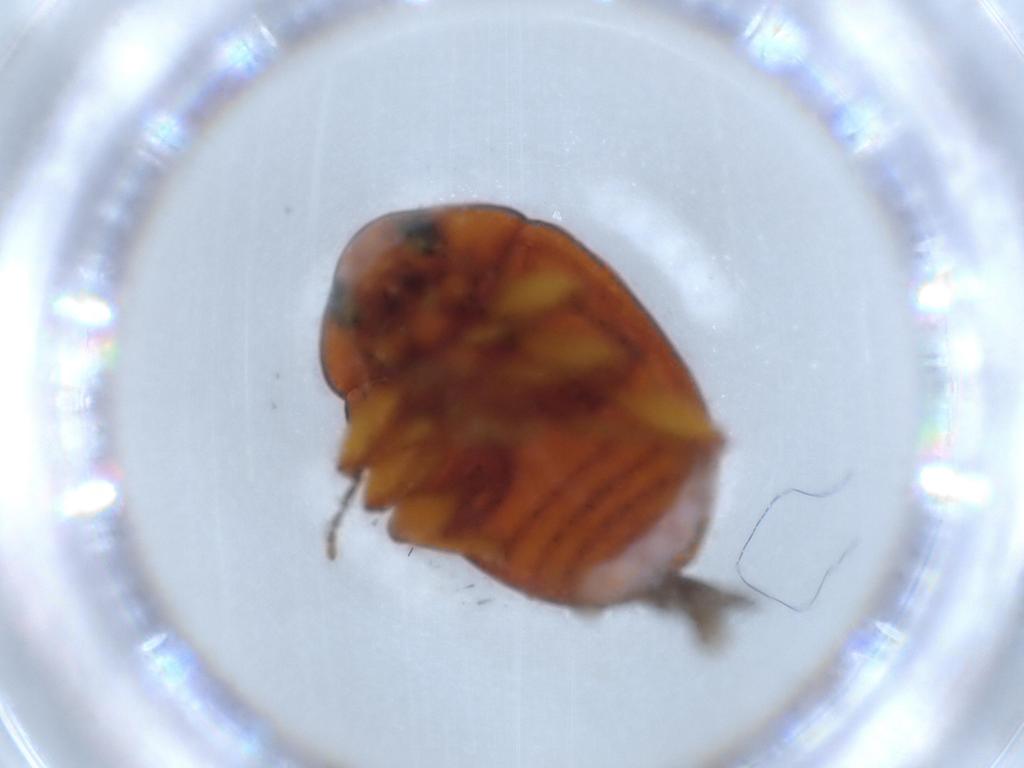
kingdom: Animalia
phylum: Arthropoda
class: Insecta
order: Coleoptera
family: Chrysomelidae
